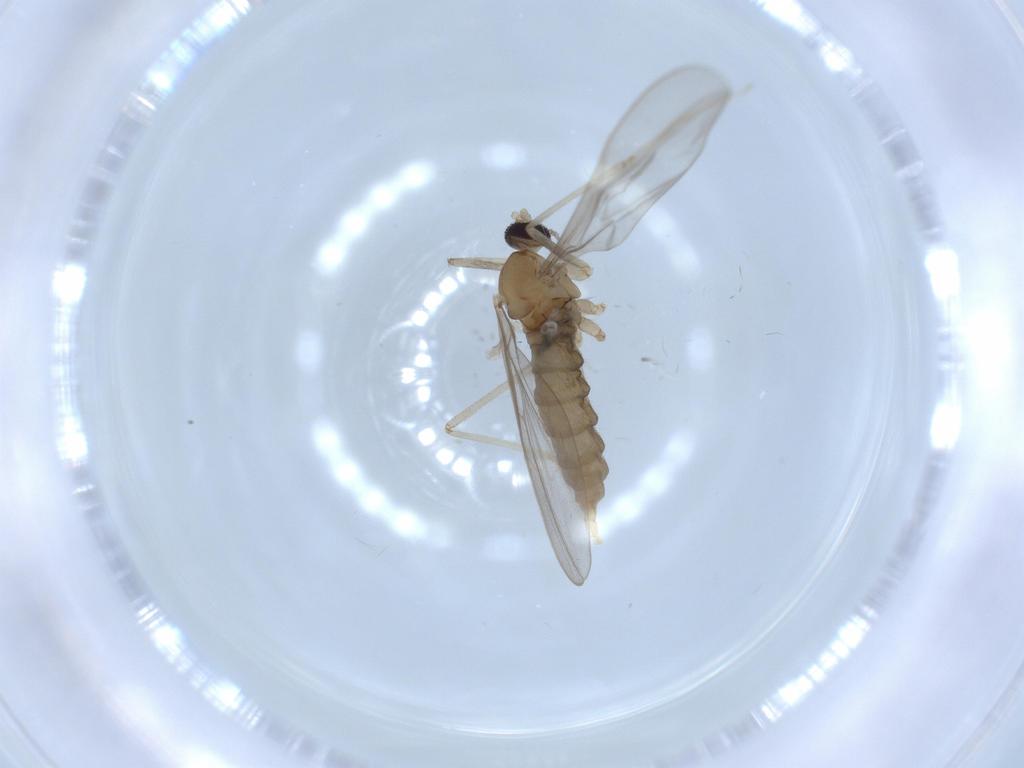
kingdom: Animalia
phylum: Arthropoda
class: Insecta
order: Diptera
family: Cecidomyiidae
